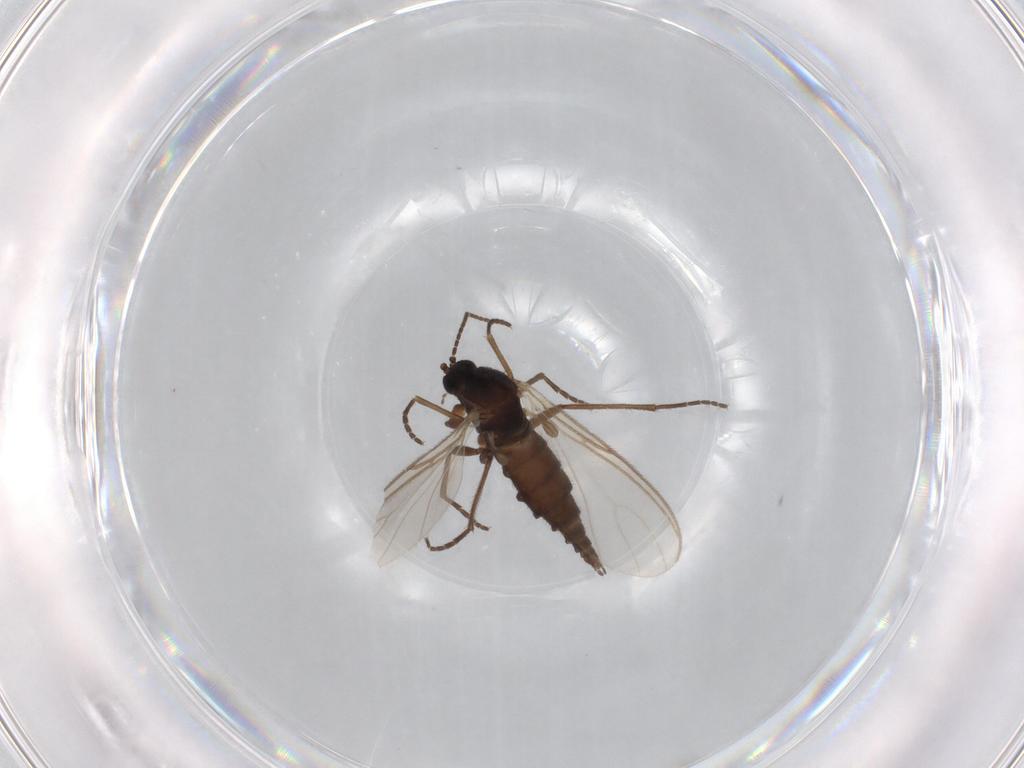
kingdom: Animalia
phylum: Arthropoda
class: Insecta
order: Diptera
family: Sciaridae
